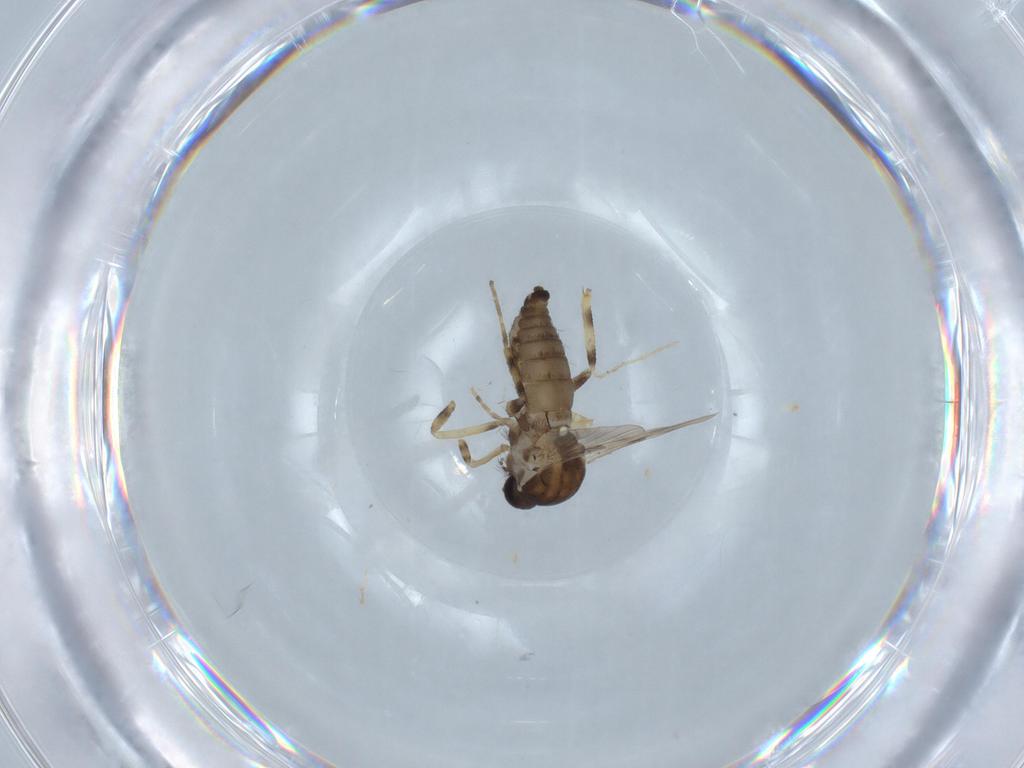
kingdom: Animalia
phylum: Arthropoda
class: Insecta
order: Diptera
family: Ceratopogonidae
